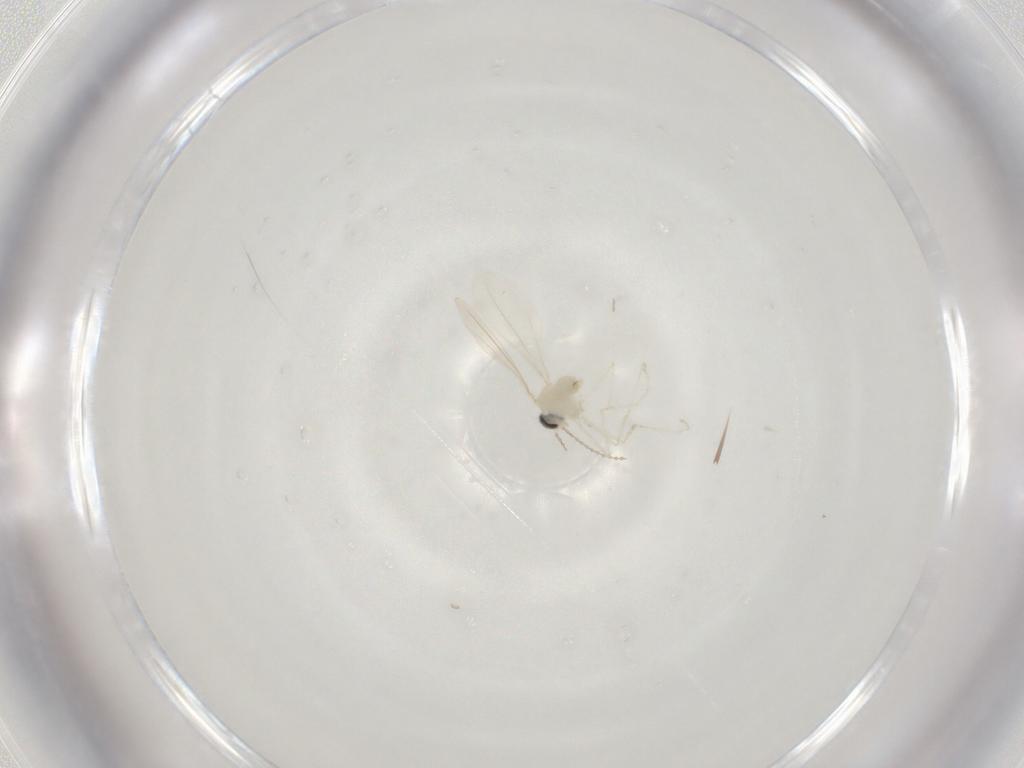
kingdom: Animalia
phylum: Arthropoda
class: Insecta
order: Diptera
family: Cecidomyiidae
